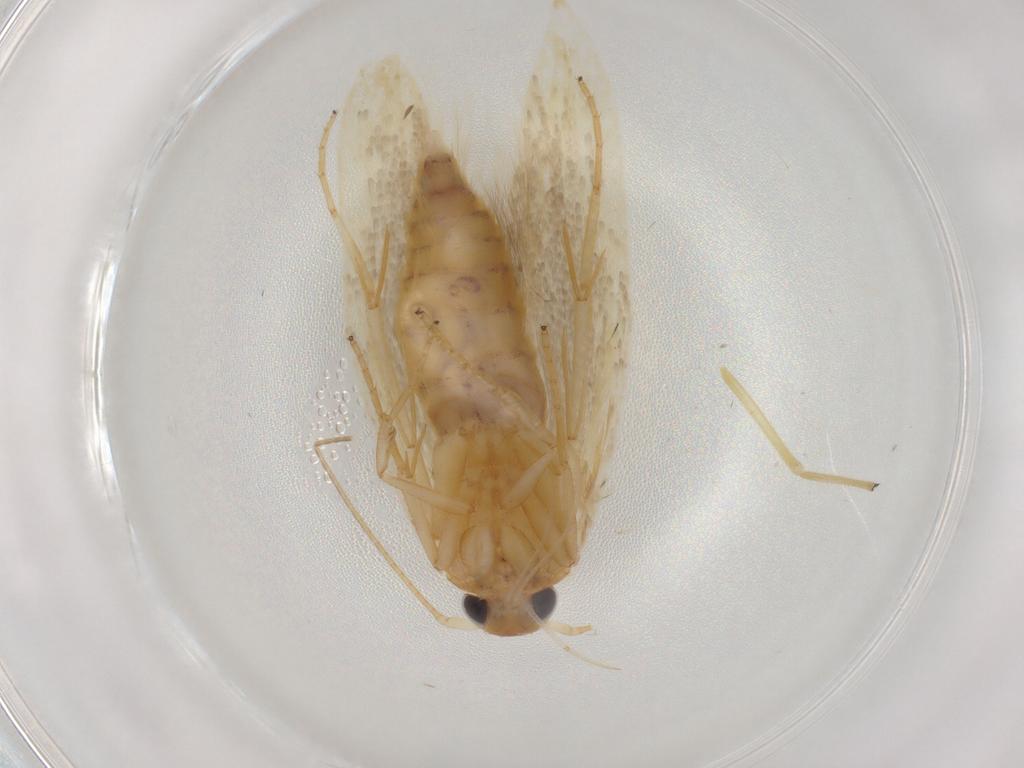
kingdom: Animalia
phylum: Arthropoda
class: Insecta
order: Lepidoptera
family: Oecophoridae
